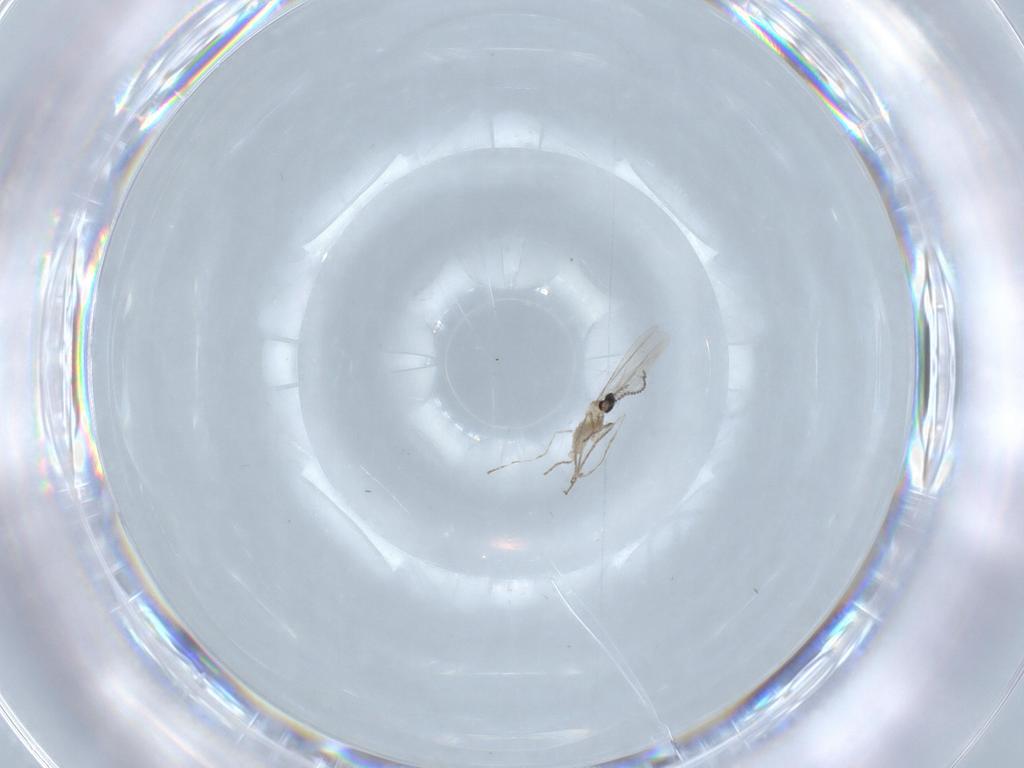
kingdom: Animalia
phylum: Arthropoda
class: Insecta
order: Diptera
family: Cecidomyiidae
